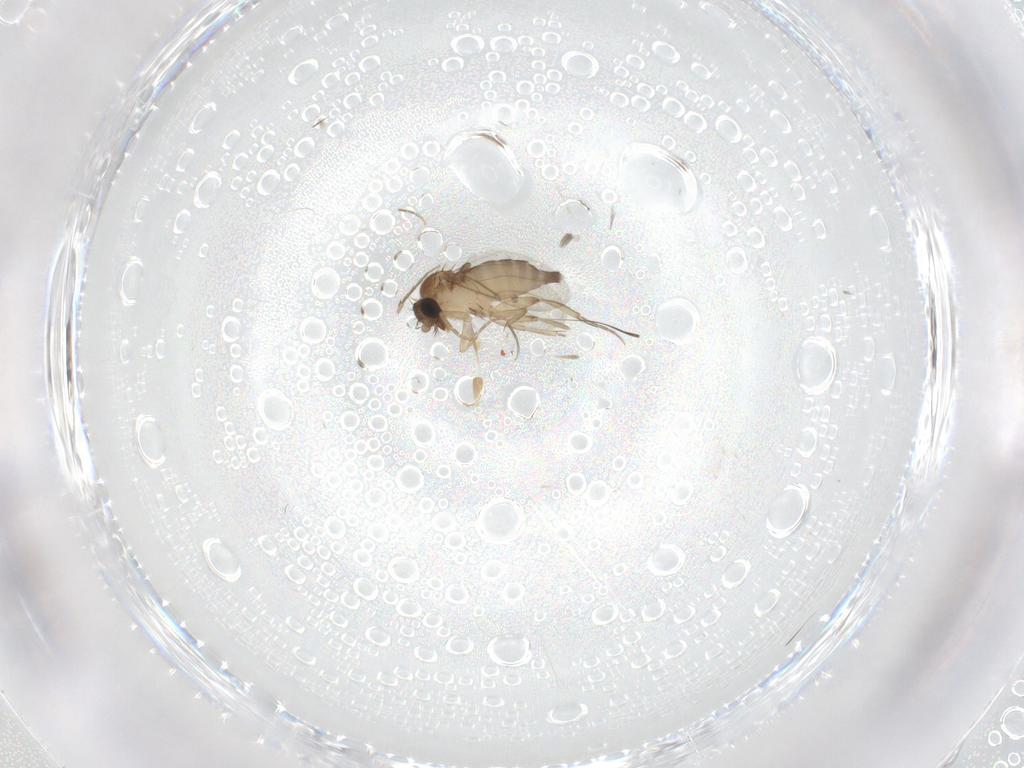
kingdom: Animalia
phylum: Arthropoda
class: Insecta
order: Diptera
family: Phoridae
